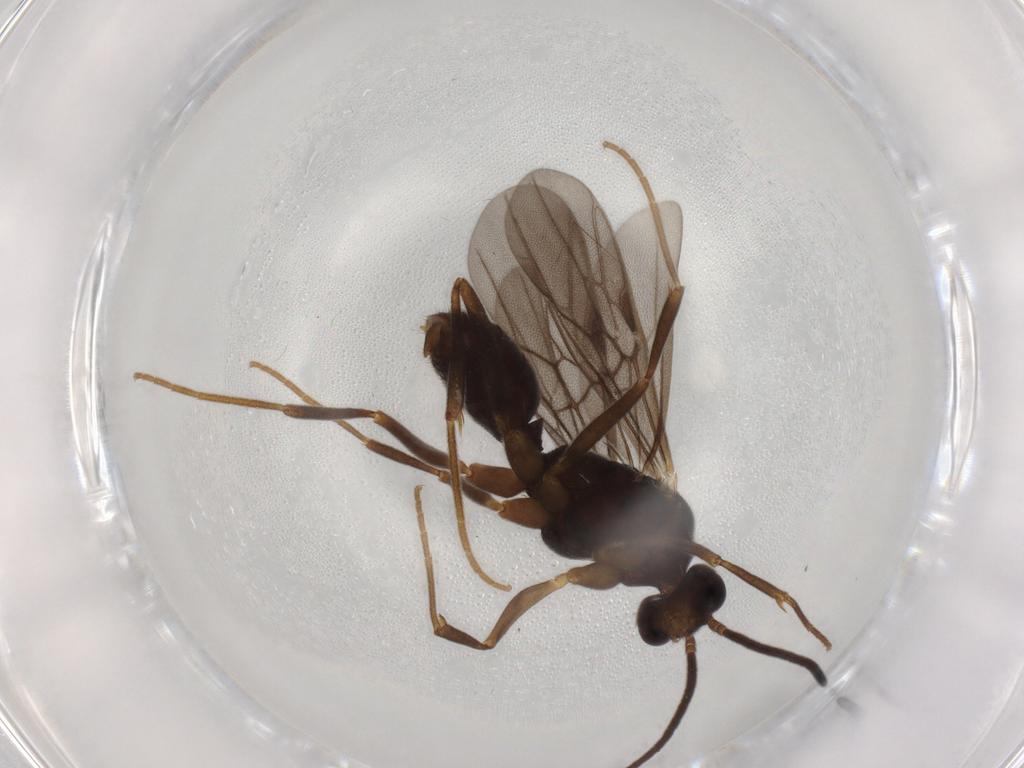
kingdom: Animalia
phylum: Arthropoda
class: Insecta
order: Hymenoptera
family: Formicidae
